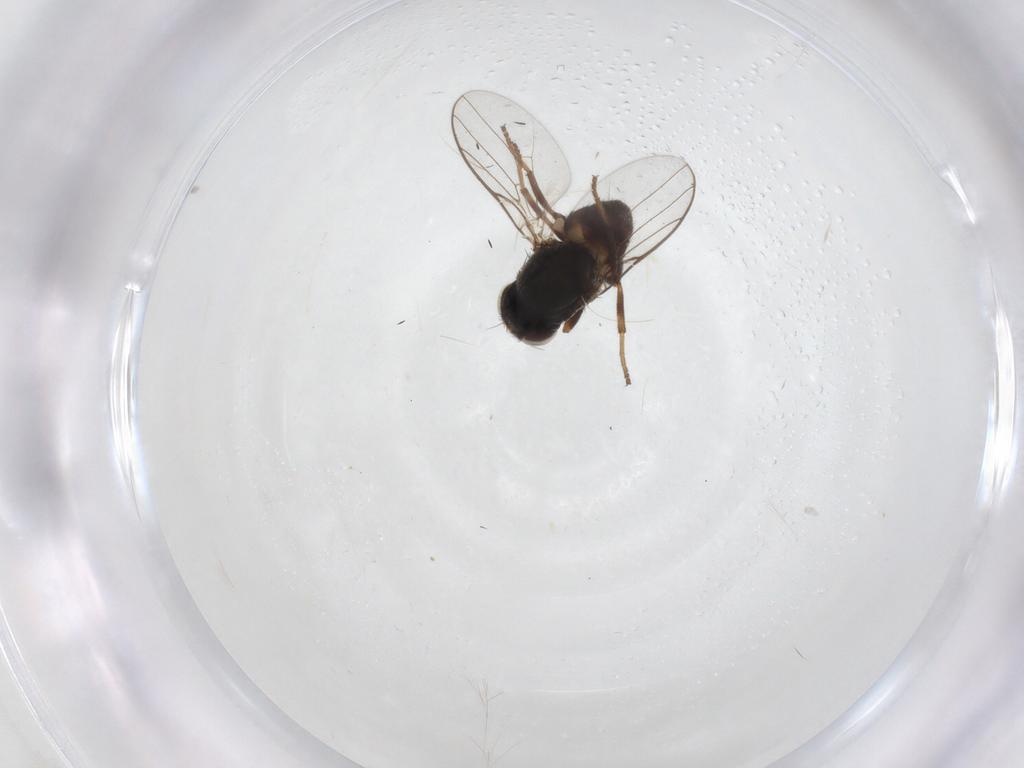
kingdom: Animalia
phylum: Arthropoda
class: Insecta
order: Diptera
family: Chloropidae
